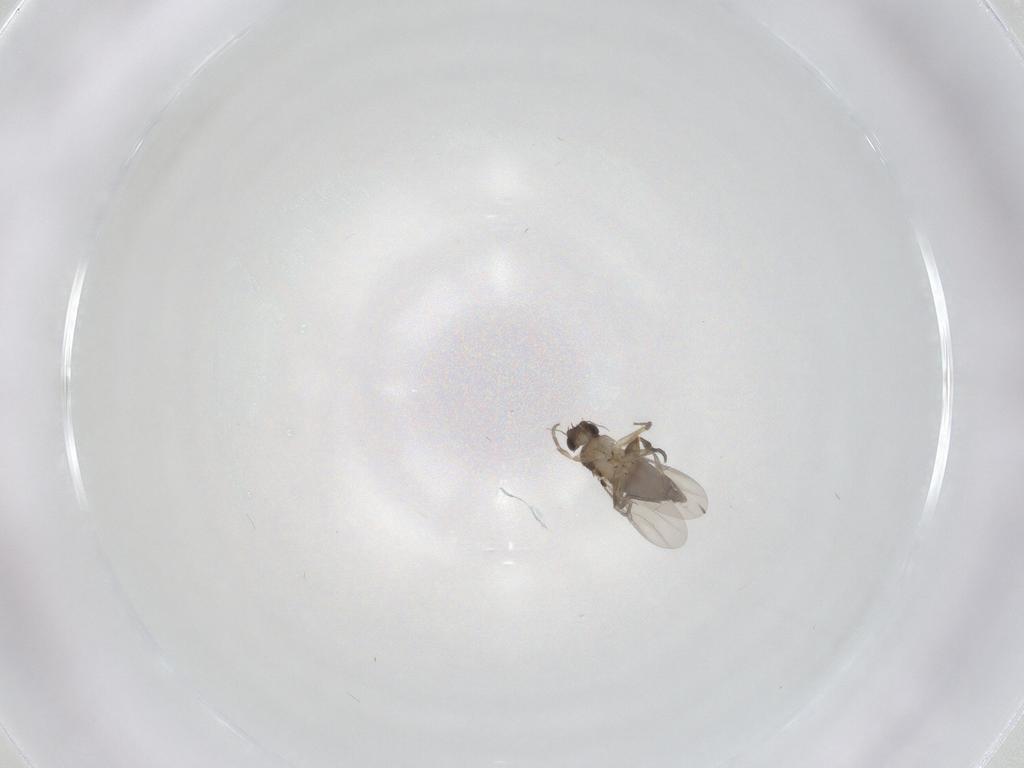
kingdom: Animalia
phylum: Arthropoda
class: Insecta
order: Diptera
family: Phoridae
